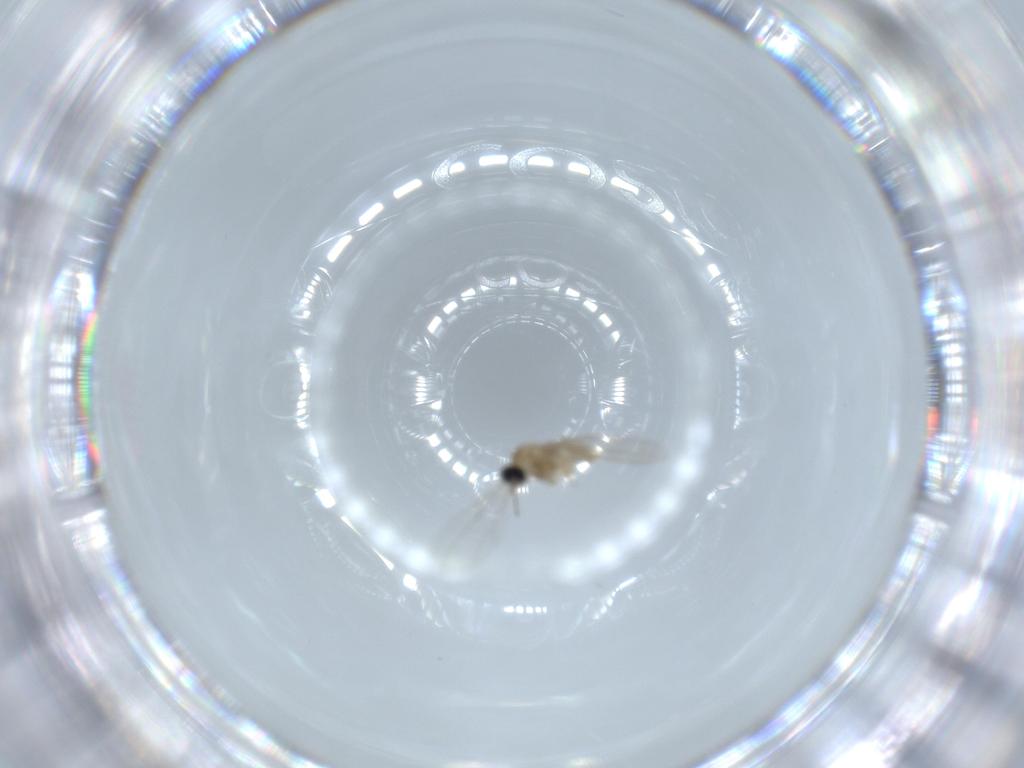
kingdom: Animalia
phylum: Arthropoda
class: Insecta
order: Diptera
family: Cecidomyiidae
